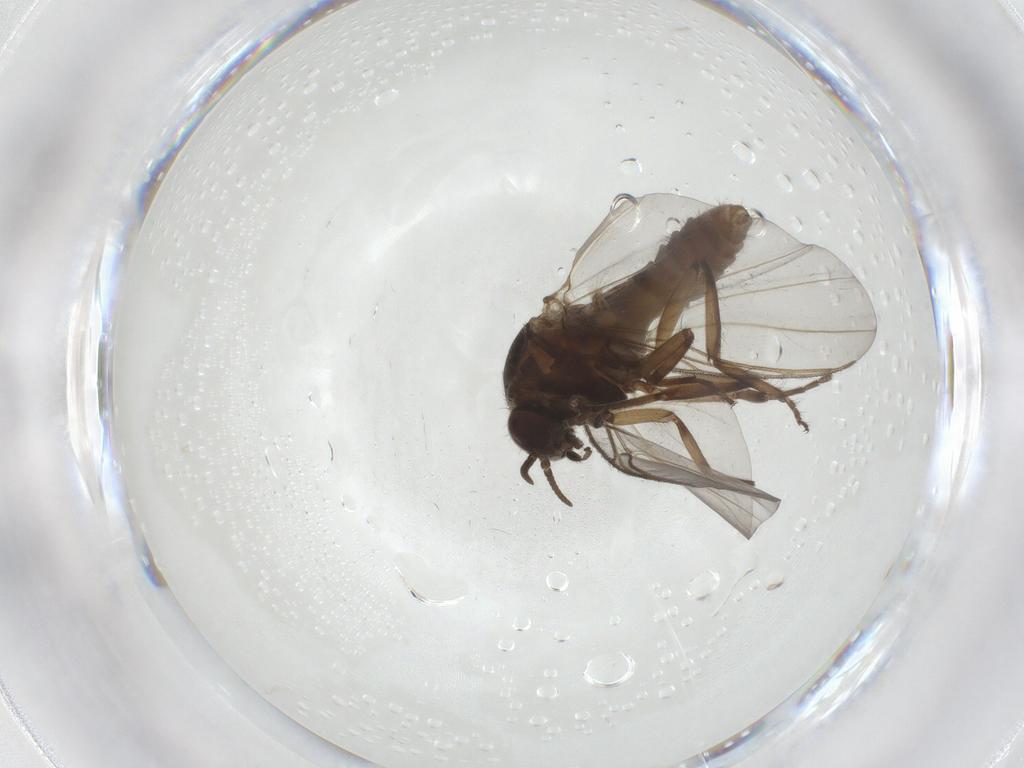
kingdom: Animalia
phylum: Arthropoda
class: Insecta
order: Diptera
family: Simuliidae
